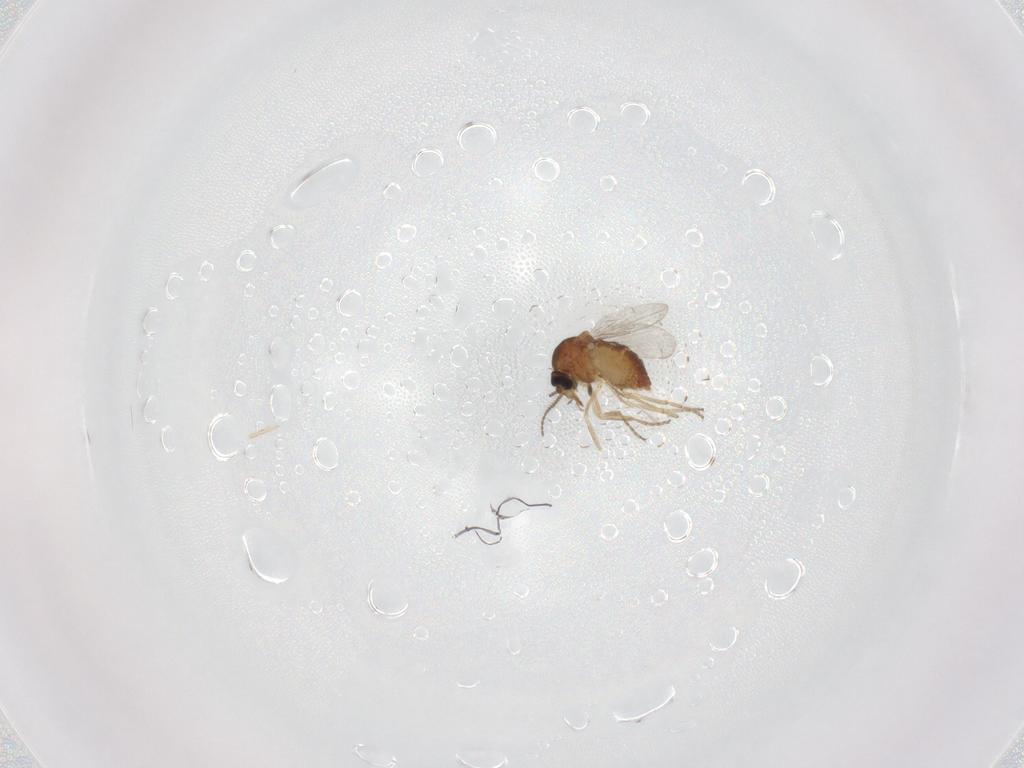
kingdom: Animalia
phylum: Arthropoda
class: Insecta
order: Diptera
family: Ceratopogonidae
